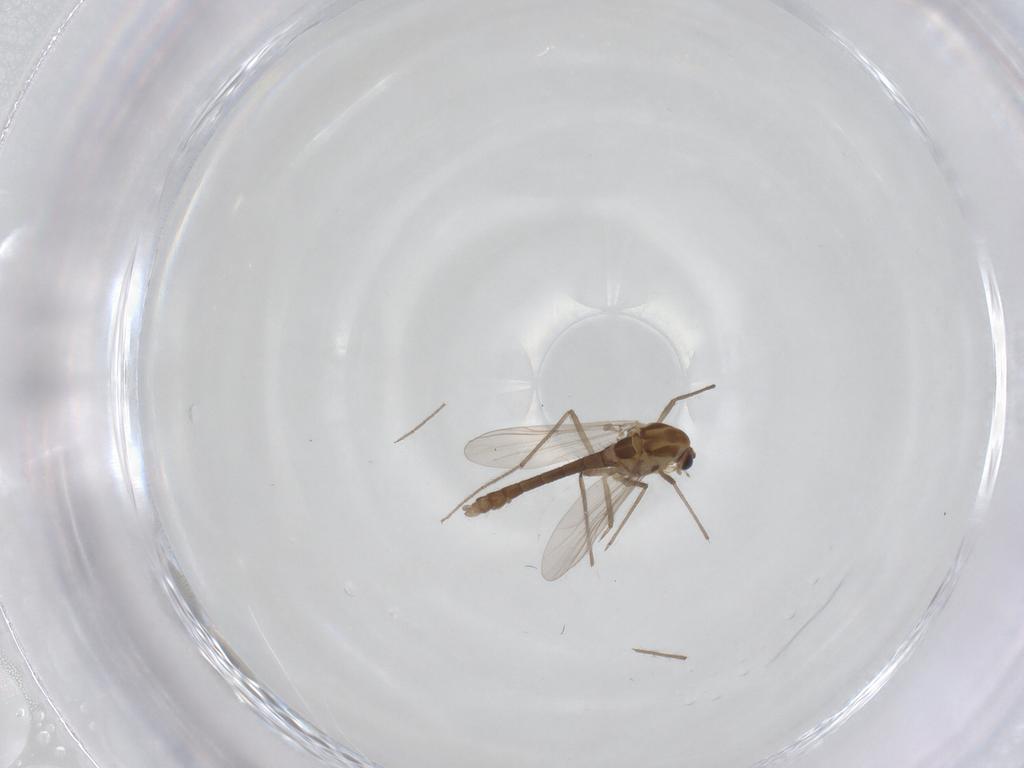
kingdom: Animalia
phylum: Arthropoda
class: Insecta
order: Diptera
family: Chironomidae
